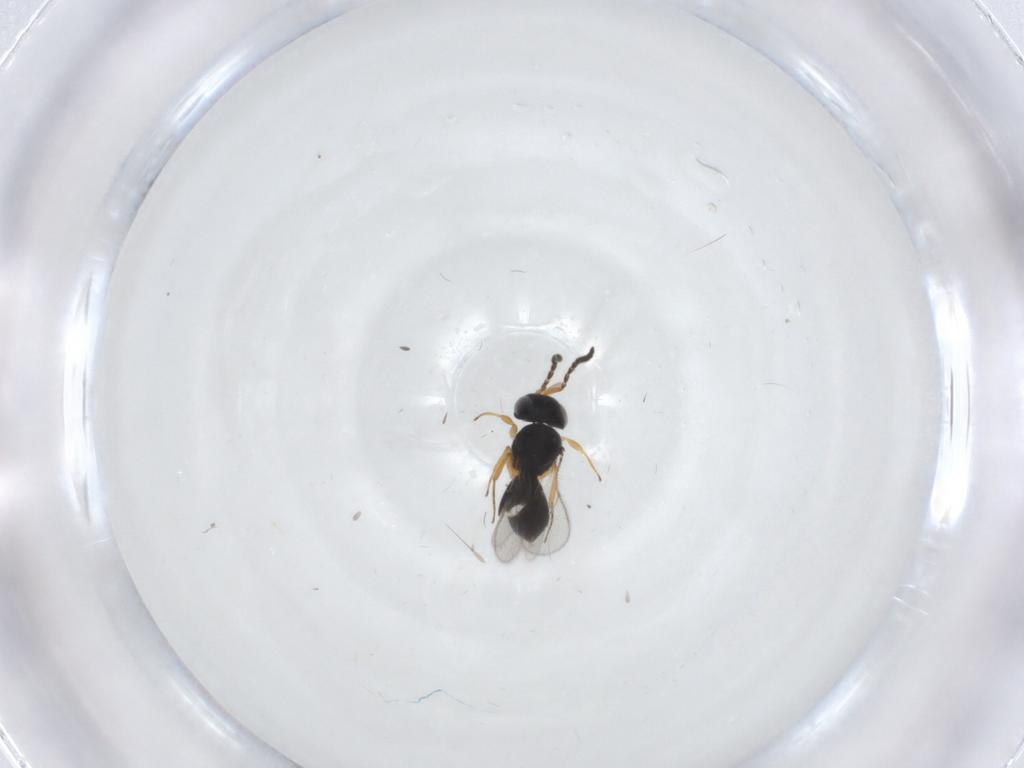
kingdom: Animalia
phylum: Arthropoda
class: Insecta
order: Hymenoptera
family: Scelionidae
